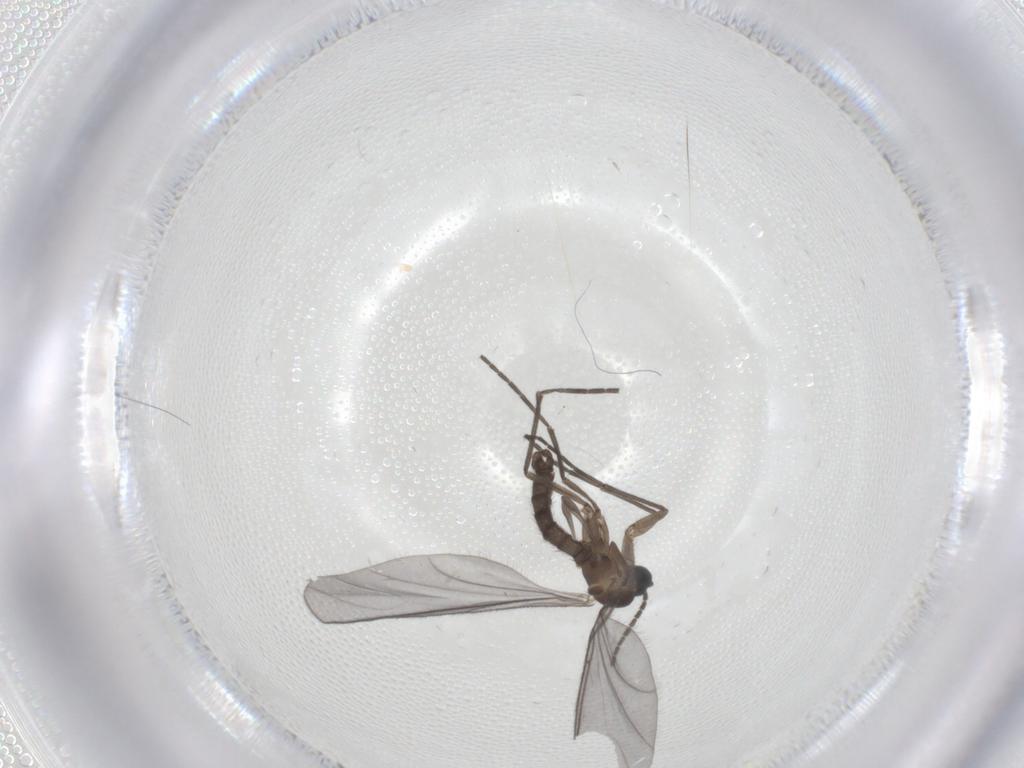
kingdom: Animalia
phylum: Arthropoda
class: Insecta
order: Diptera
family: Sciaridae
